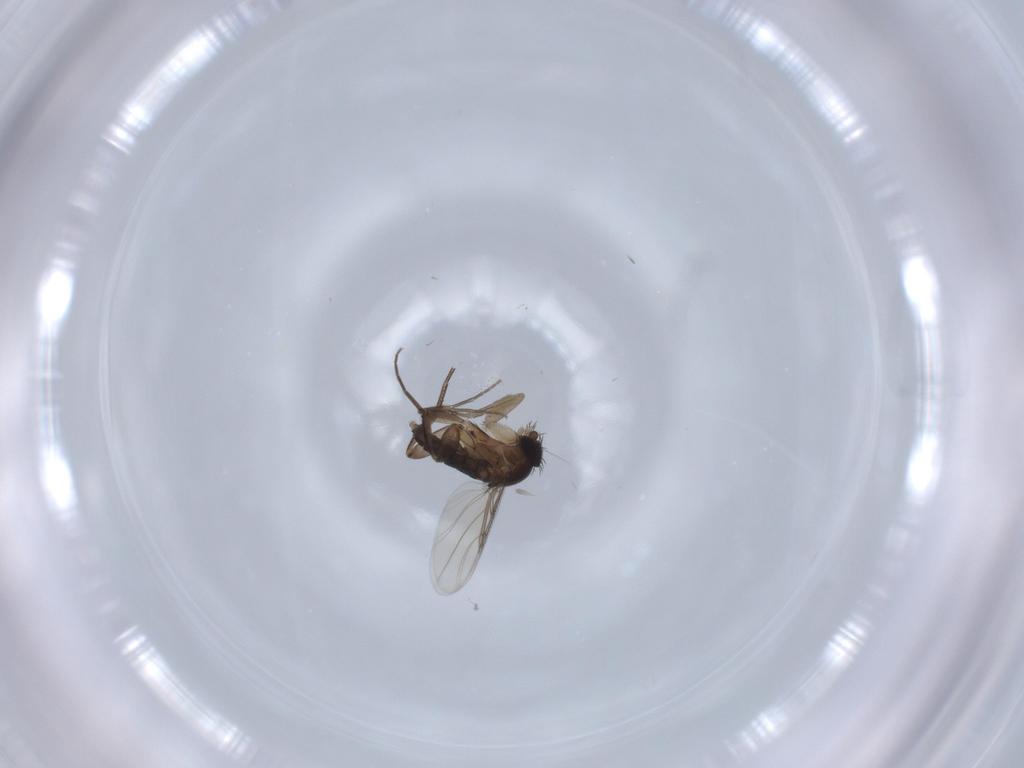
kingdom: Animalia
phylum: Arthropoda
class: Insecta
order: Diptera
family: Phoridae
